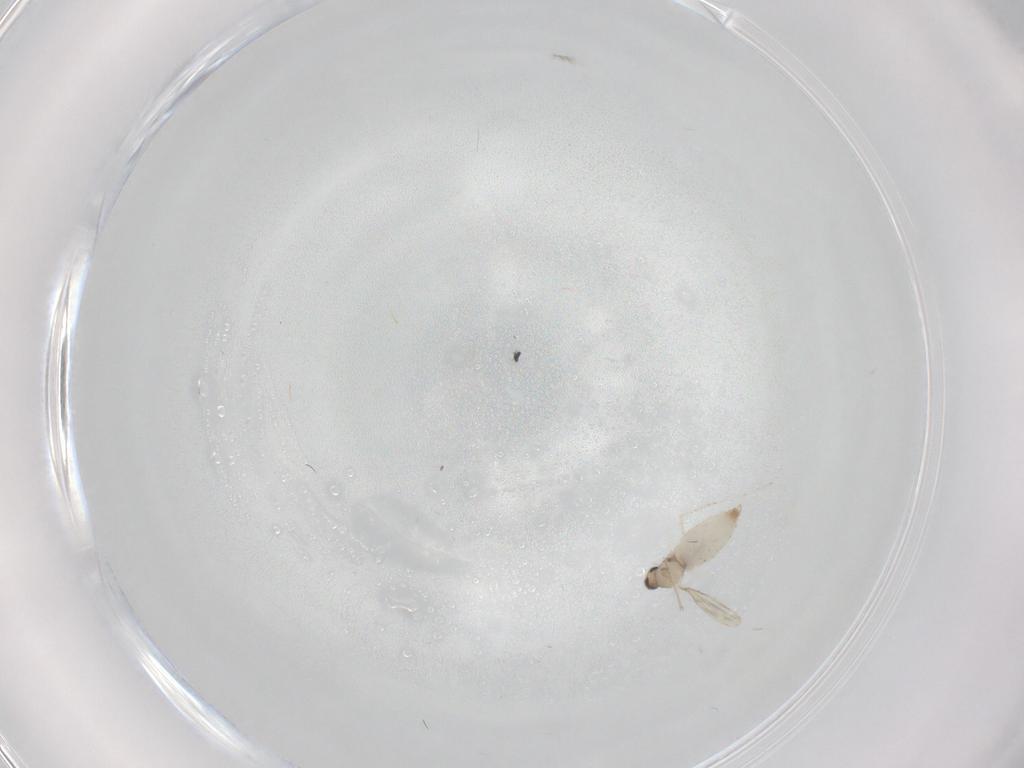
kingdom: Animalia
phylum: Arthropoda
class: Insecta
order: Diptera
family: Cecidomyiidae
